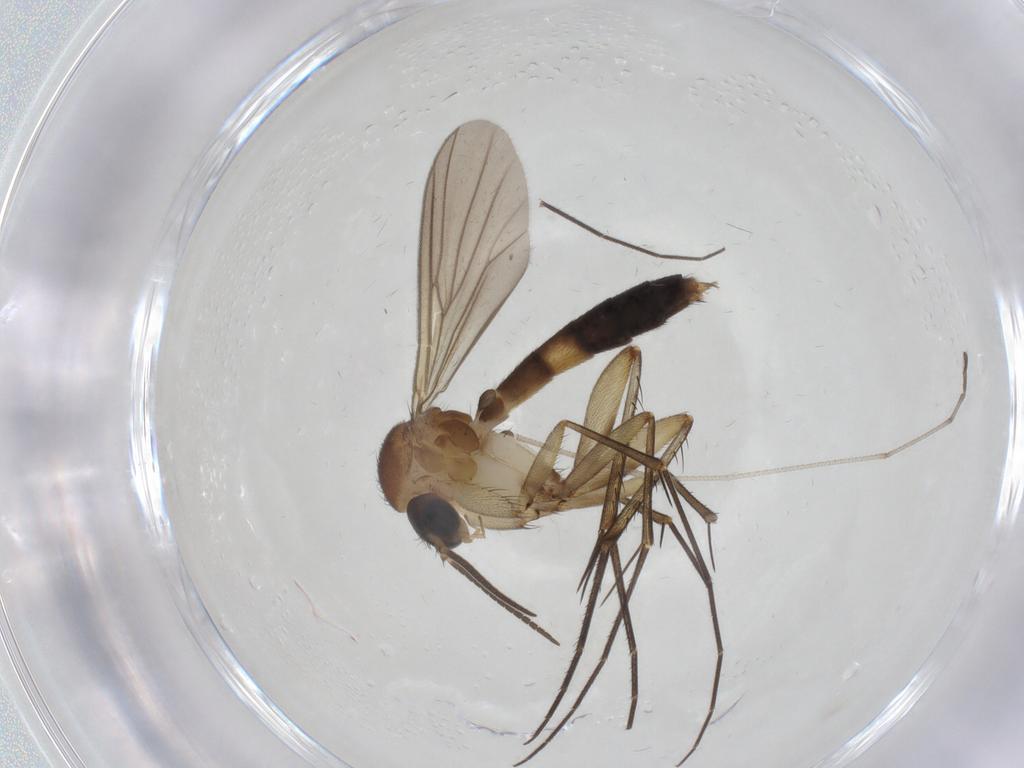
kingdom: Animalia
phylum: Arthropoda
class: Insecta
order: Diptera
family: Mycetophilidae
